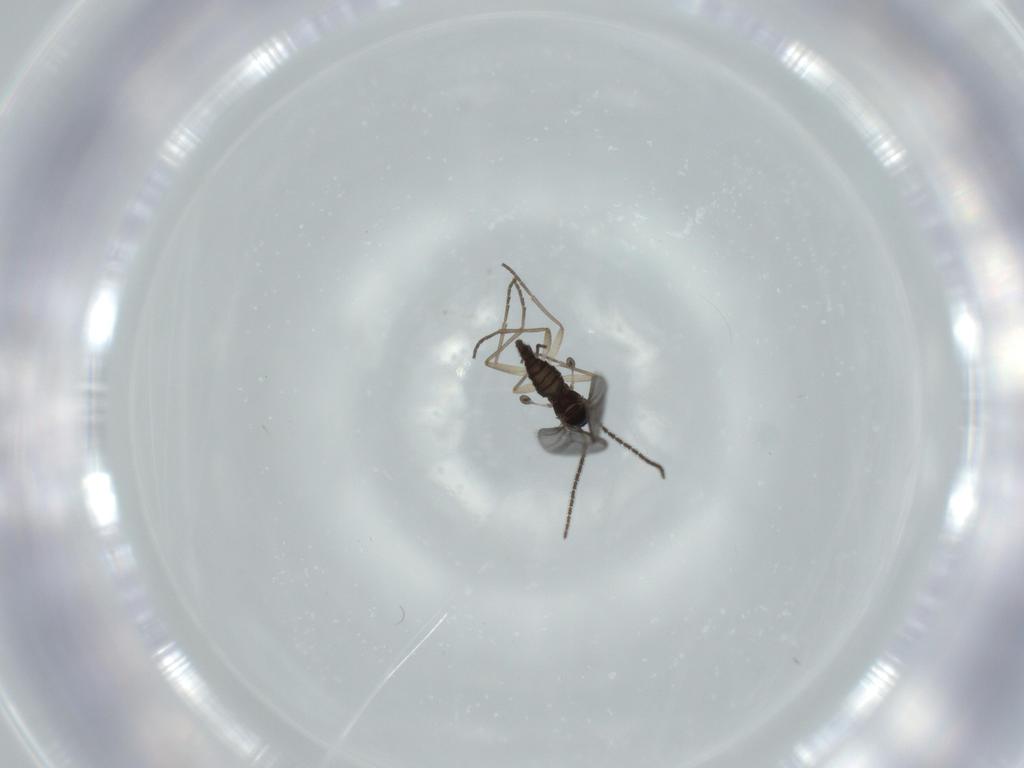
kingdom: Animalia
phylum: Arthropoda
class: Insecta
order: Diptera
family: Sciaridae
